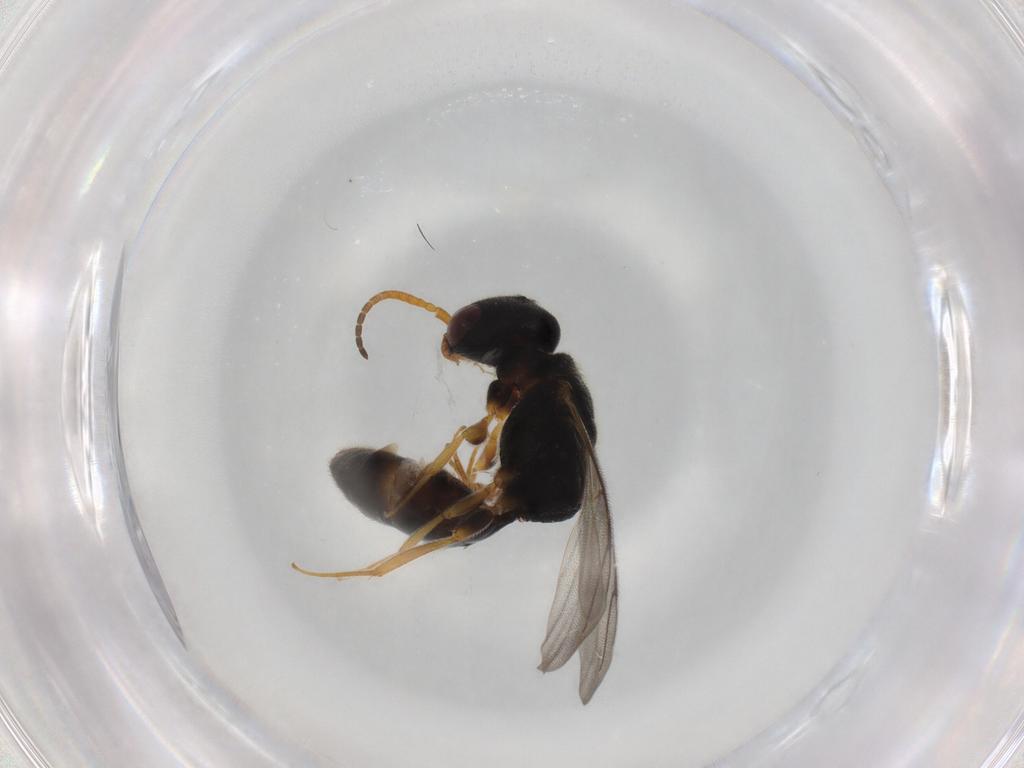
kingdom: Animalia
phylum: Arthropoda
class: Insecta
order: Hymenoptera
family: Bethylidae
